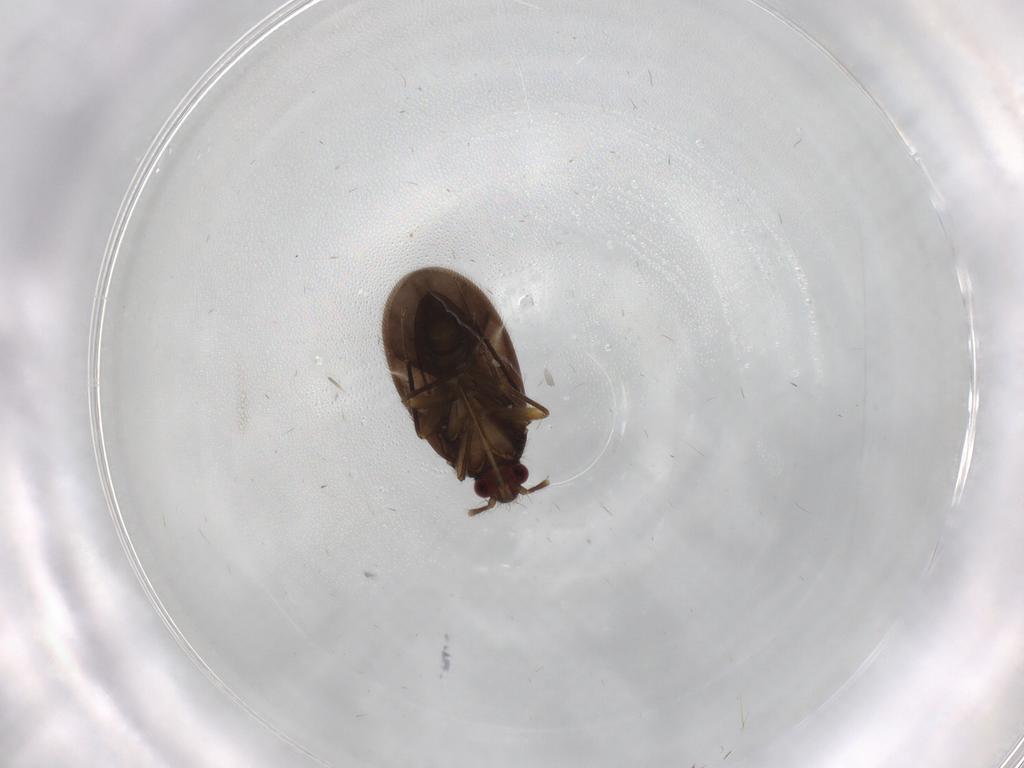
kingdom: Animalia
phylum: Arthropoda
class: Insecta
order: Hemiptera
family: Ceratocombidae
